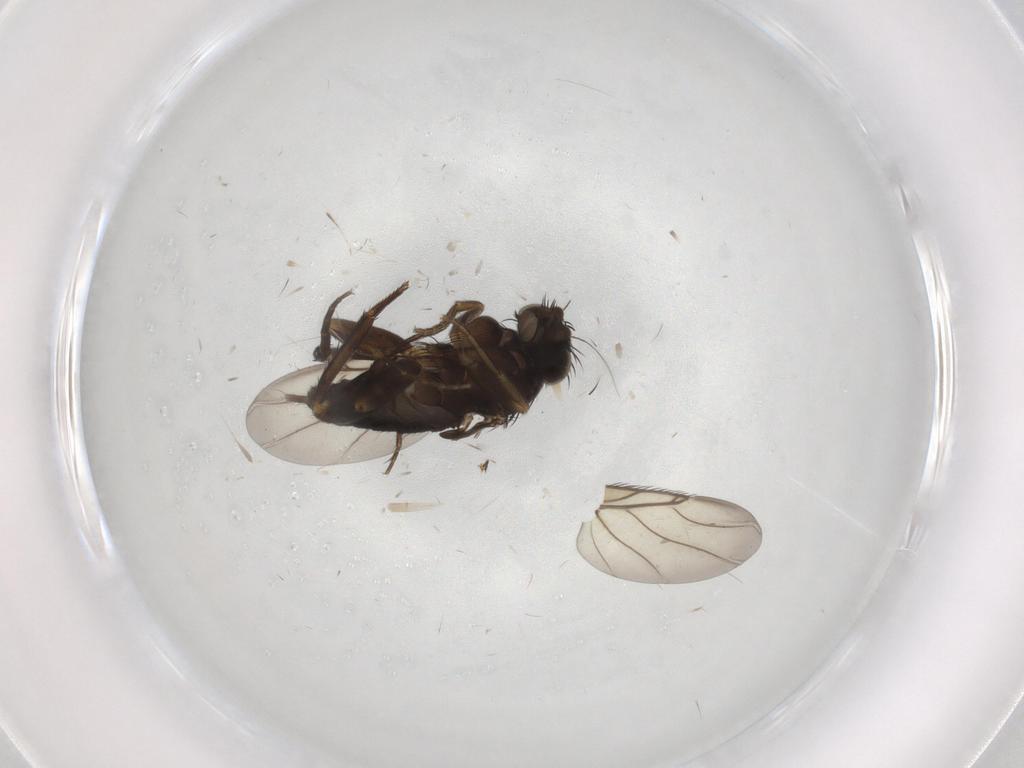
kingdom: Animalia
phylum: Arthropoda
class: Insecta
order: Diptera
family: Phoridae
